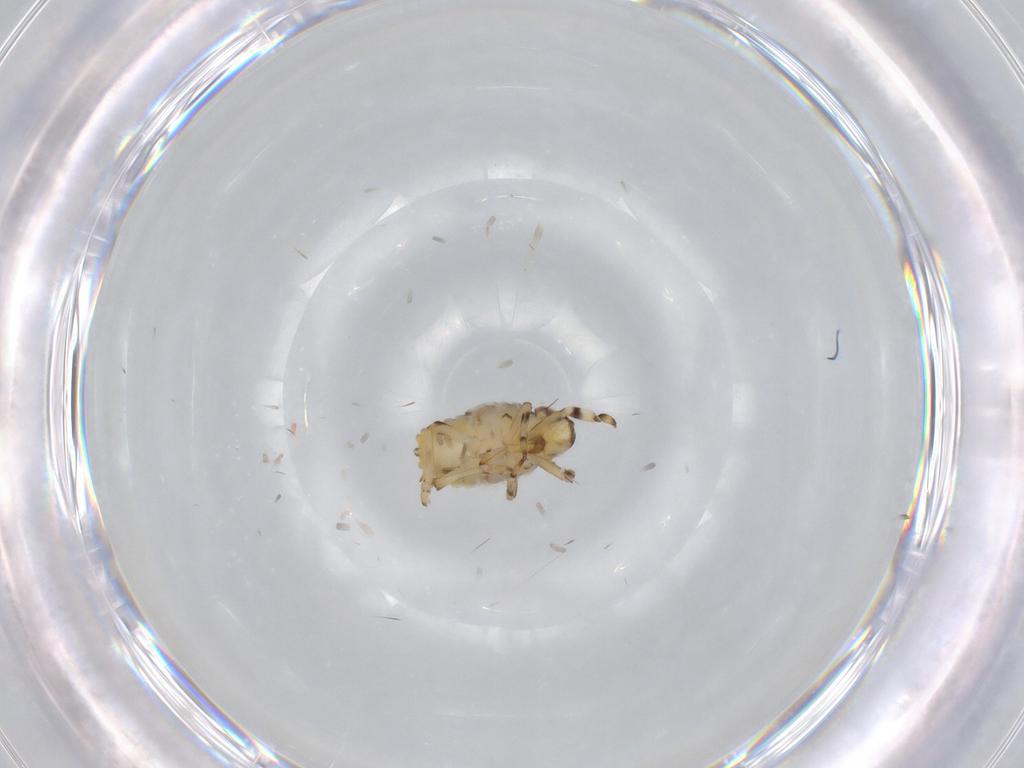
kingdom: Animalia
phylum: Arthropoda
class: Insecta
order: Hemiptera
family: Issidae
